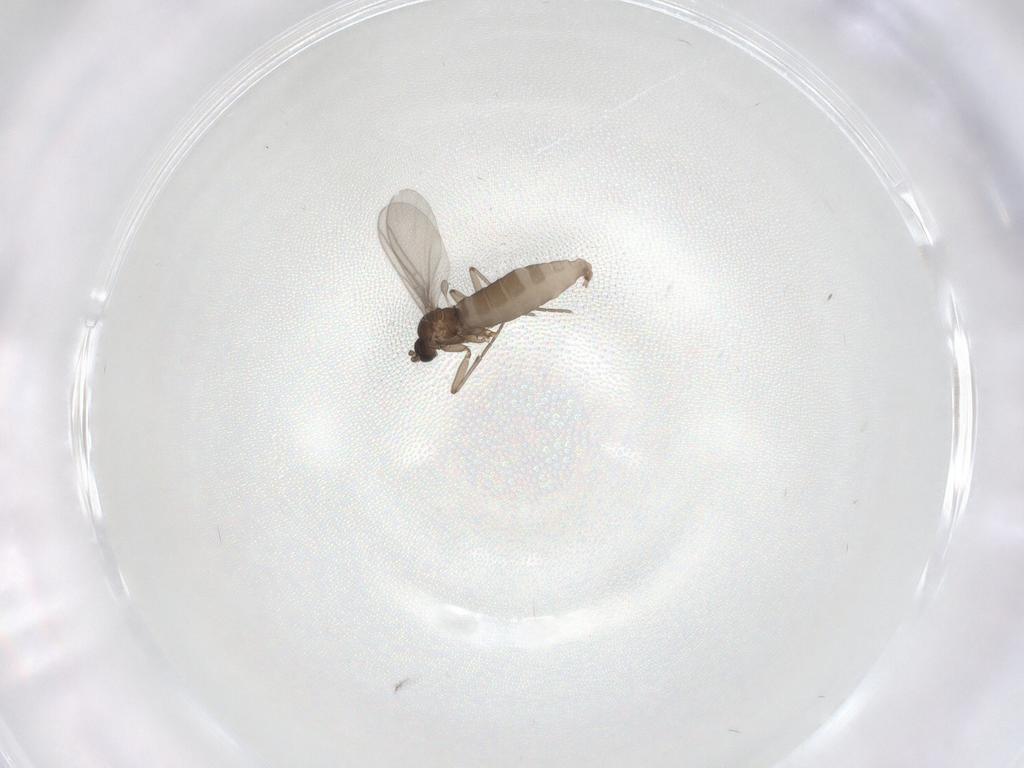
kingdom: Animalia
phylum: Arthropoda
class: Insecta
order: Diptera
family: Sciaridae
